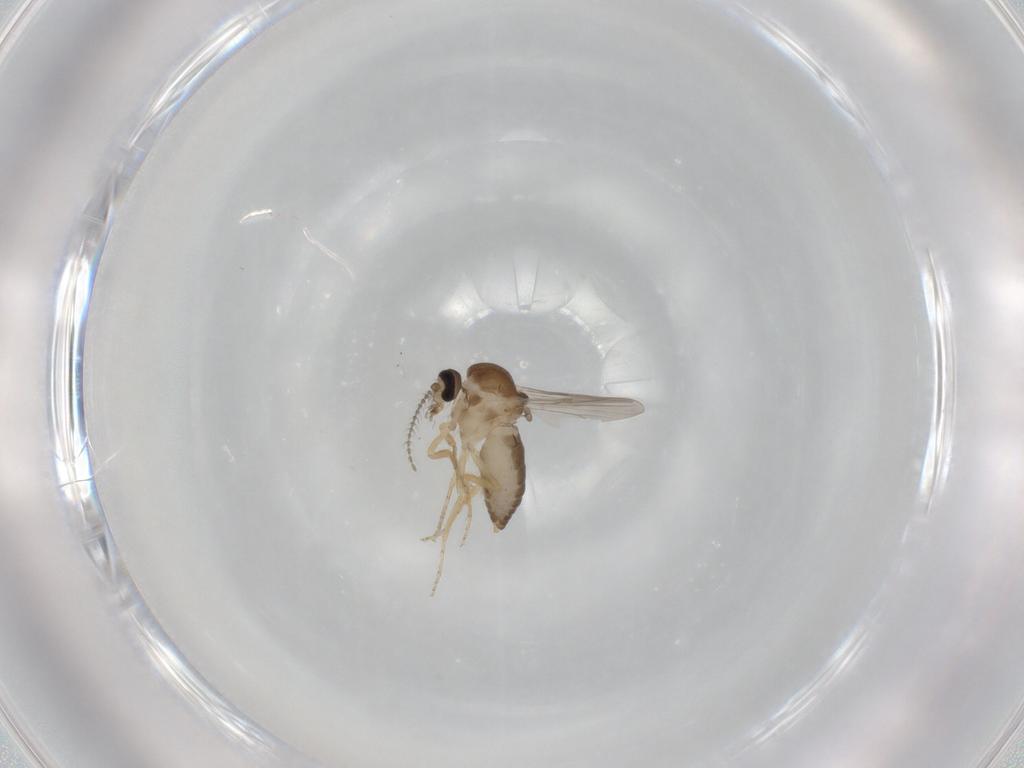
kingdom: Animalia
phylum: Arthropoda
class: Insecta
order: Diptera
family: Ceratopogonidae
